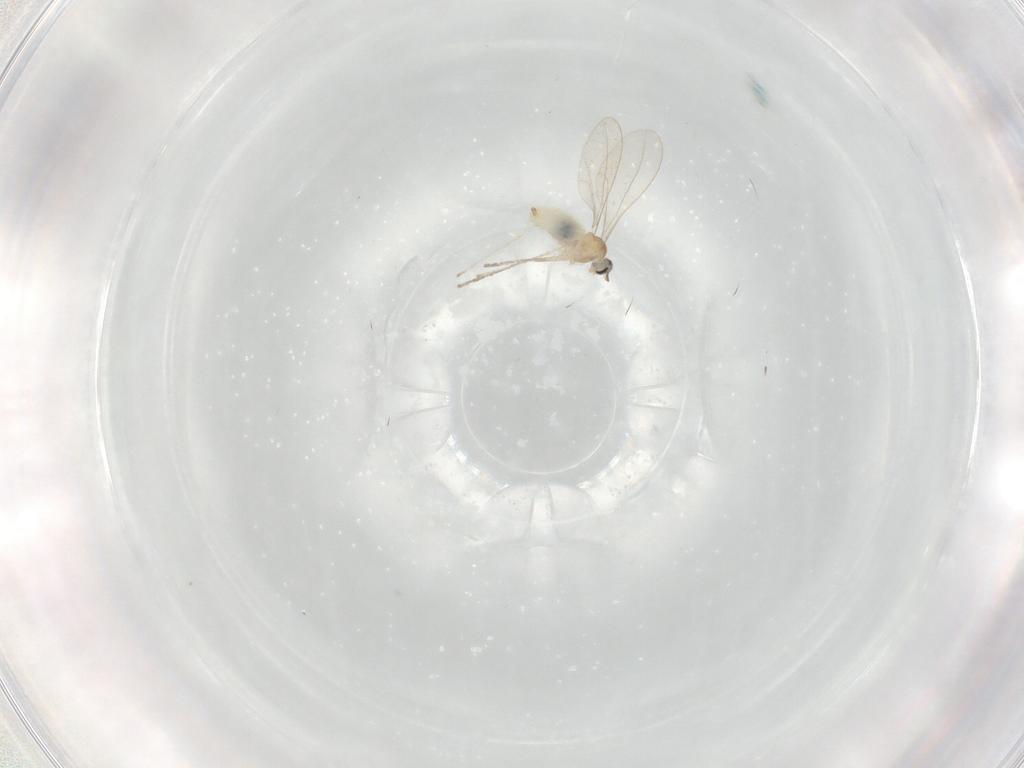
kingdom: Animalia
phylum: Arthropoda
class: Insecta
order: Diptera
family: Cecidomyiidae
